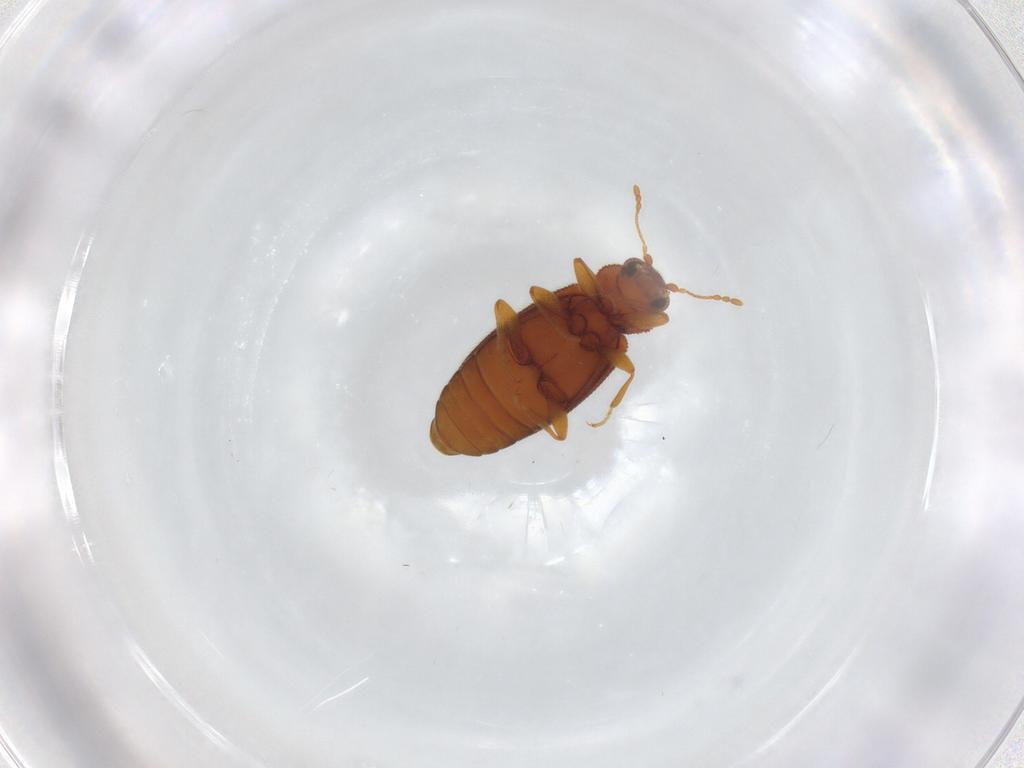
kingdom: Animalia
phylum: Arthropoda
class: Insecta
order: Coleoptera
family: Latridiidae
